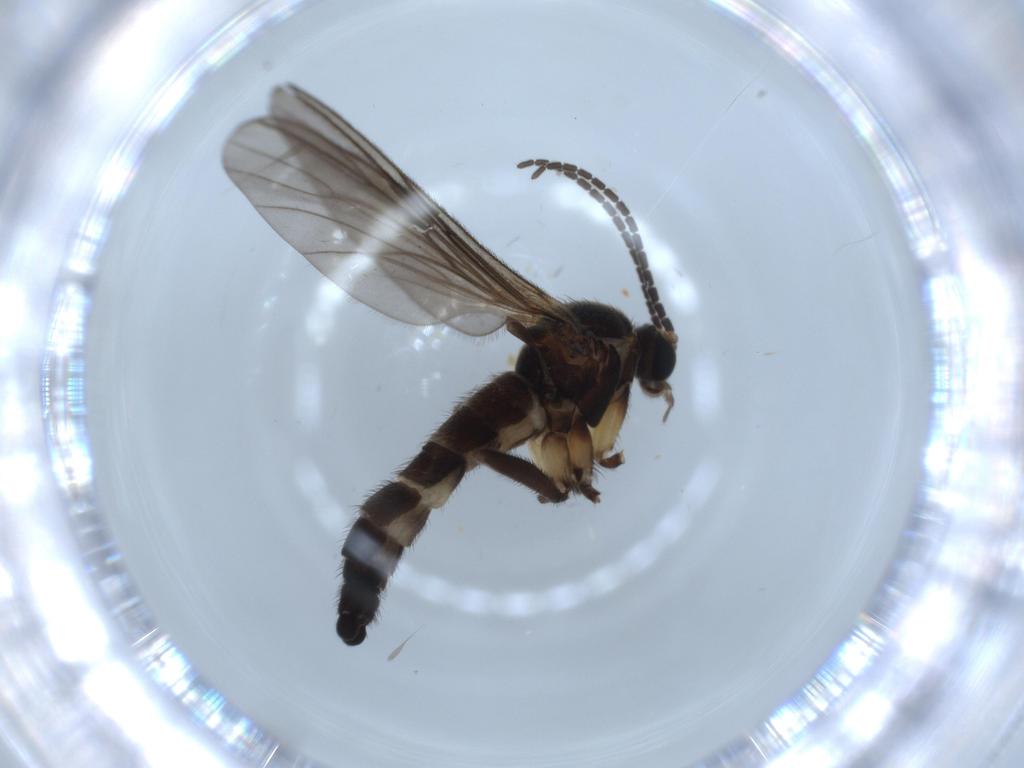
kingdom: Animalia
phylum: Arthropoda
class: Insecta
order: Diptera
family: Sciaridae
